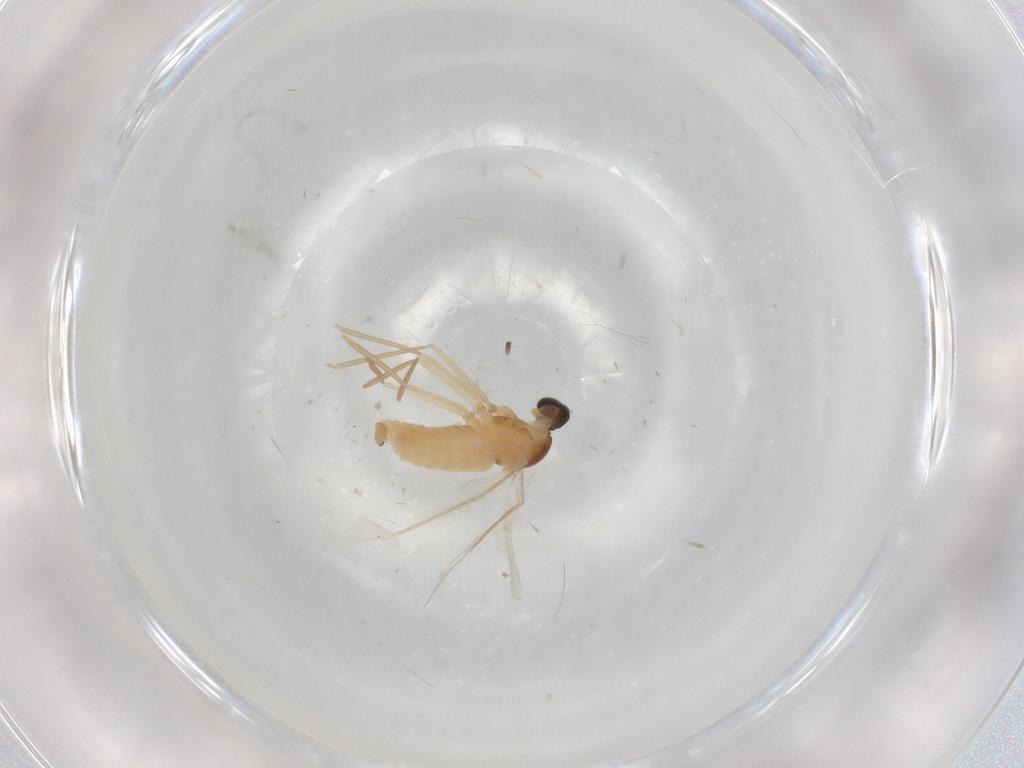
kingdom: Animalia
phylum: Arthropoda
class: Insecta
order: Diptera
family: Cecidomyiidae
